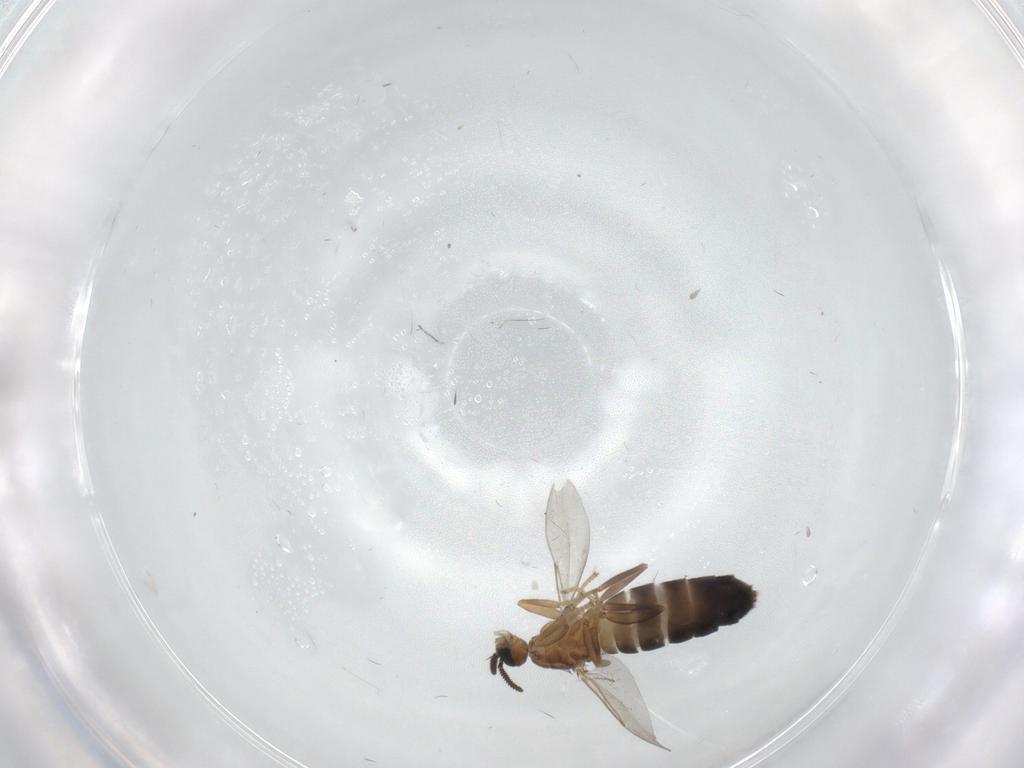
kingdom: Animalia
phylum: Arthropoda
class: Insecta
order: Diptera
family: Scatopsidae
